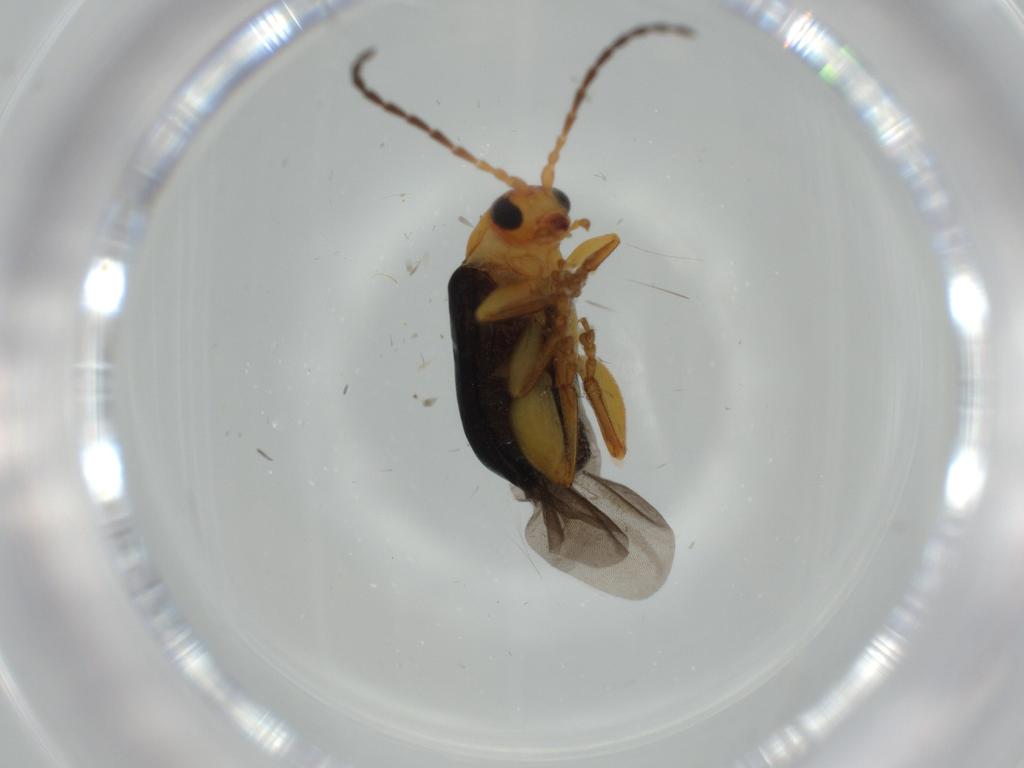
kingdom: Animalia
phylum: Arthropoda
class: Insecta
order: Coleoptera
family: Chrysomelidae
